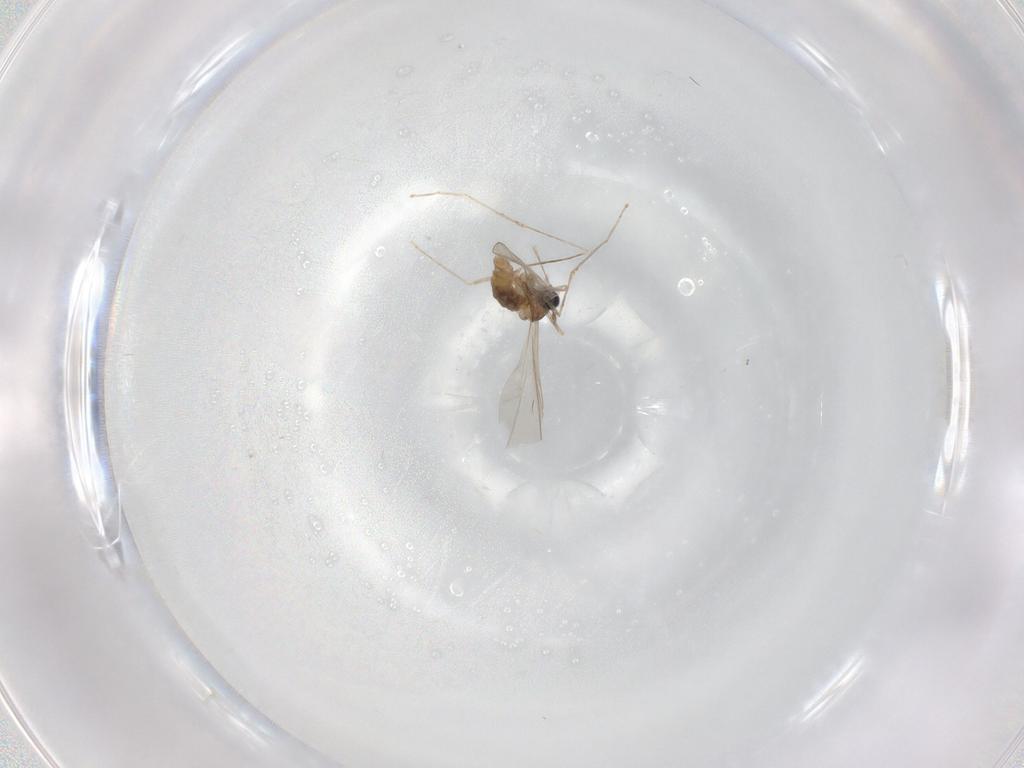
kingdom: Animalia
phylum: Arthropoda
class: Insecta
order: Diptera
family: Cecidomyiidae
